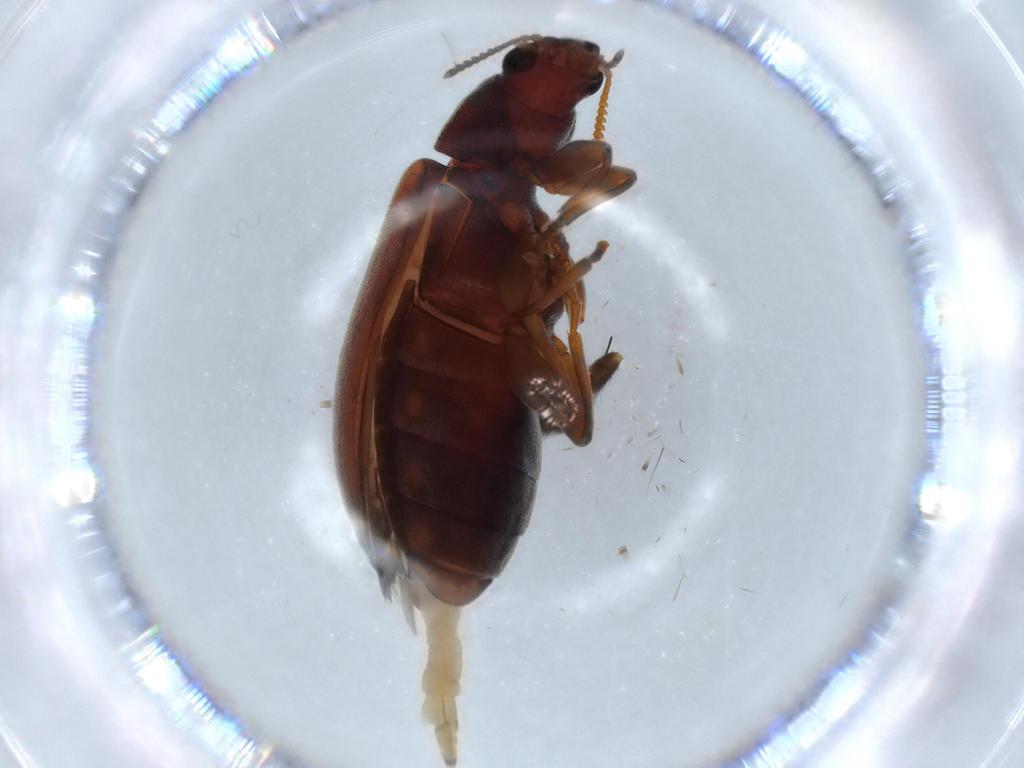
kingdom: Animalia
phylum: Arthropoda
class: Insecta
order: Coleoptera
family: Mycteridae
